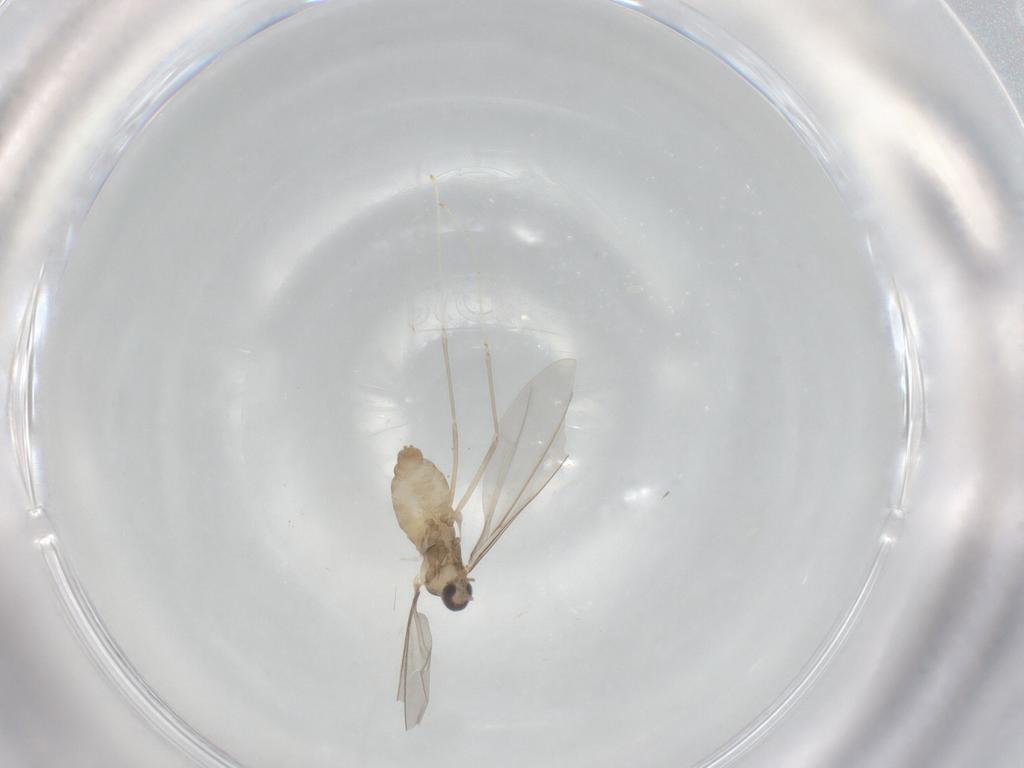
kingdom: Animalia
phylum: Arthropoda
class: Insecta
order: Diptera
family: Cecidomyiidae
